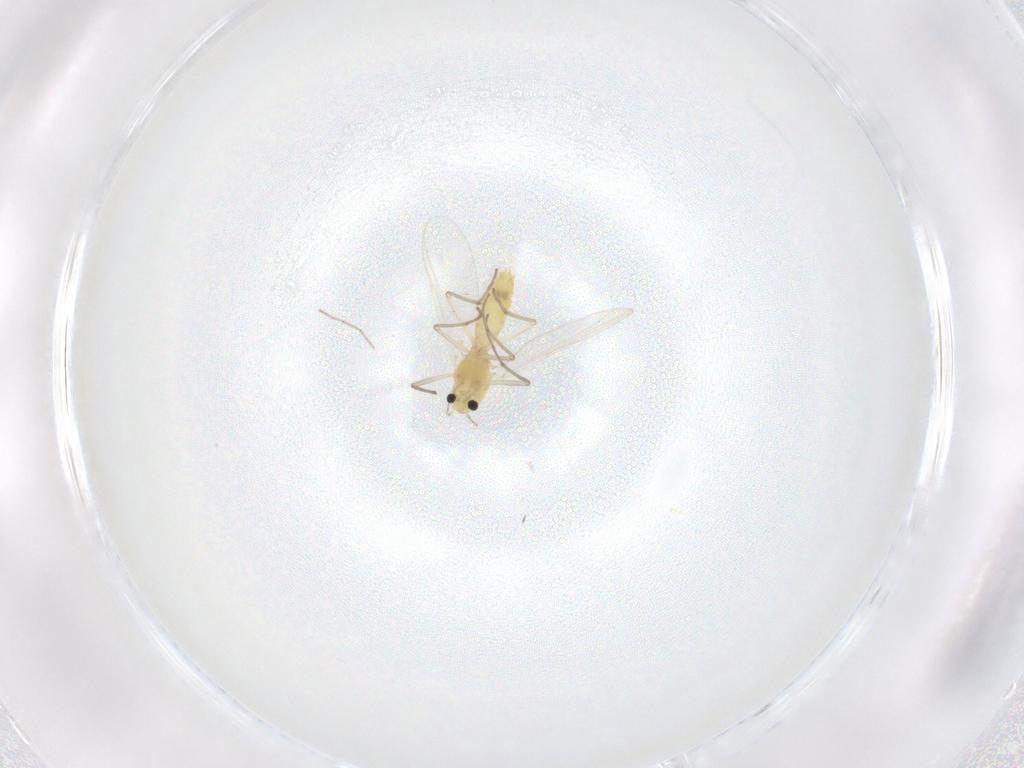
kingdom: Animalia
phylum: Arthropoda
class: Insecta
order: Diptera
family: Chironomidae
